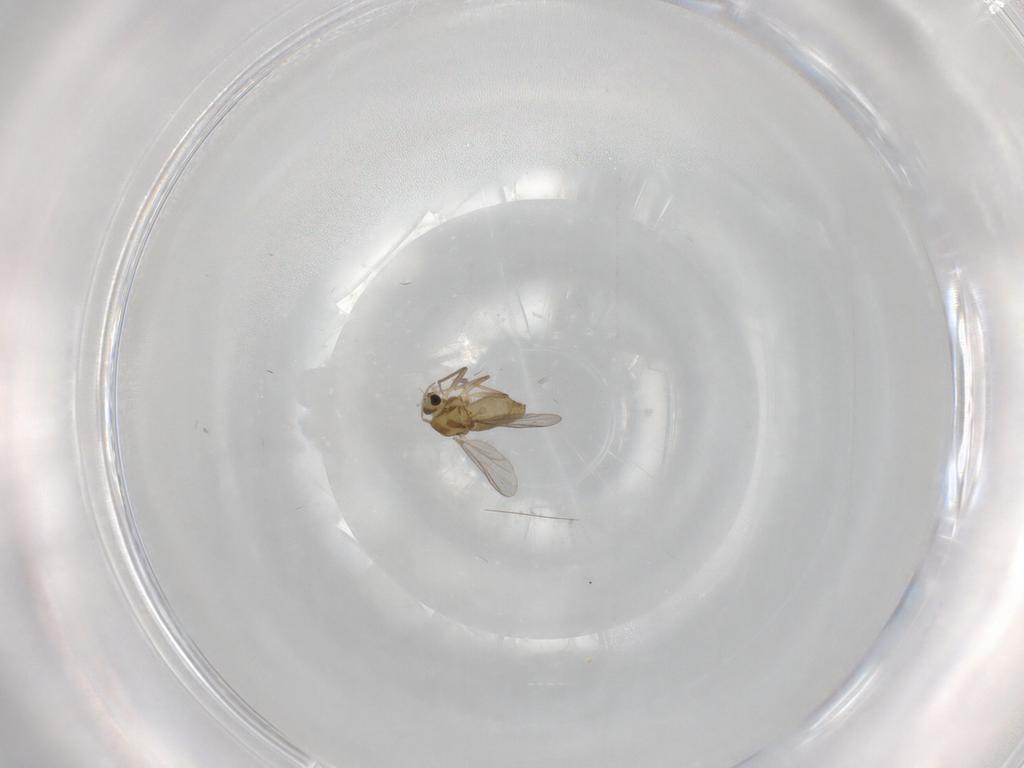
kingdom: Animalia
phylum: Arthropoda
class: Insecta
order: Diptera
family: Chironomidae
